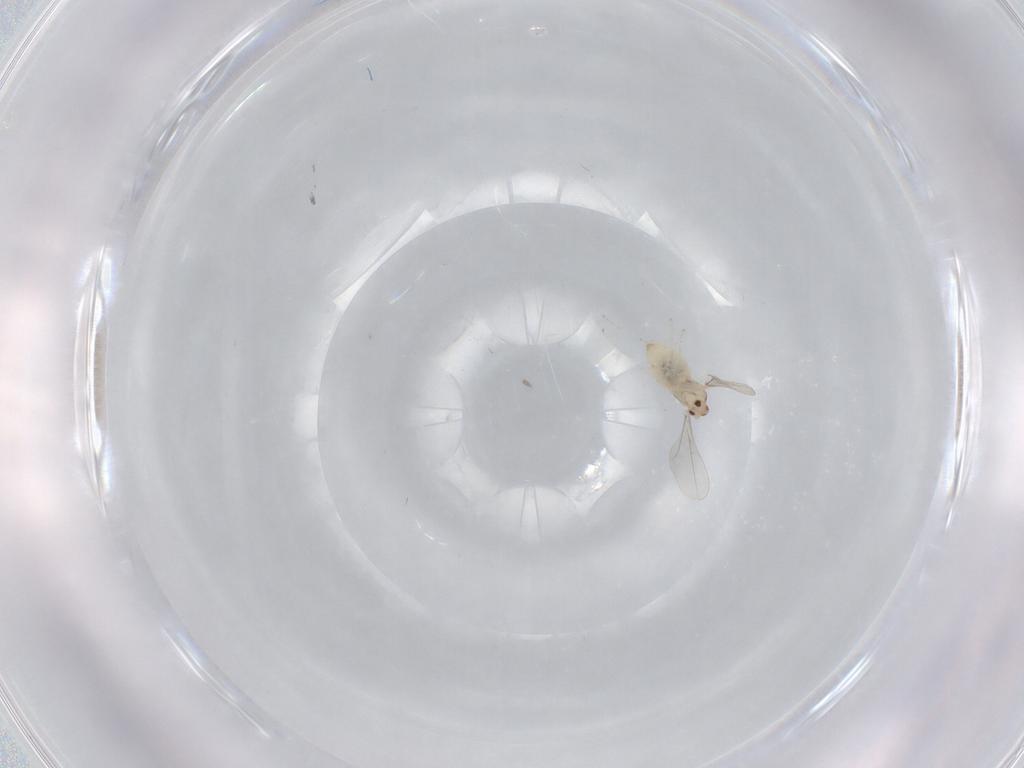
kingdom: Animalia
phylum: Arthropoda
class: Insecta
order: Diptera
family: Cecidomyiidae
